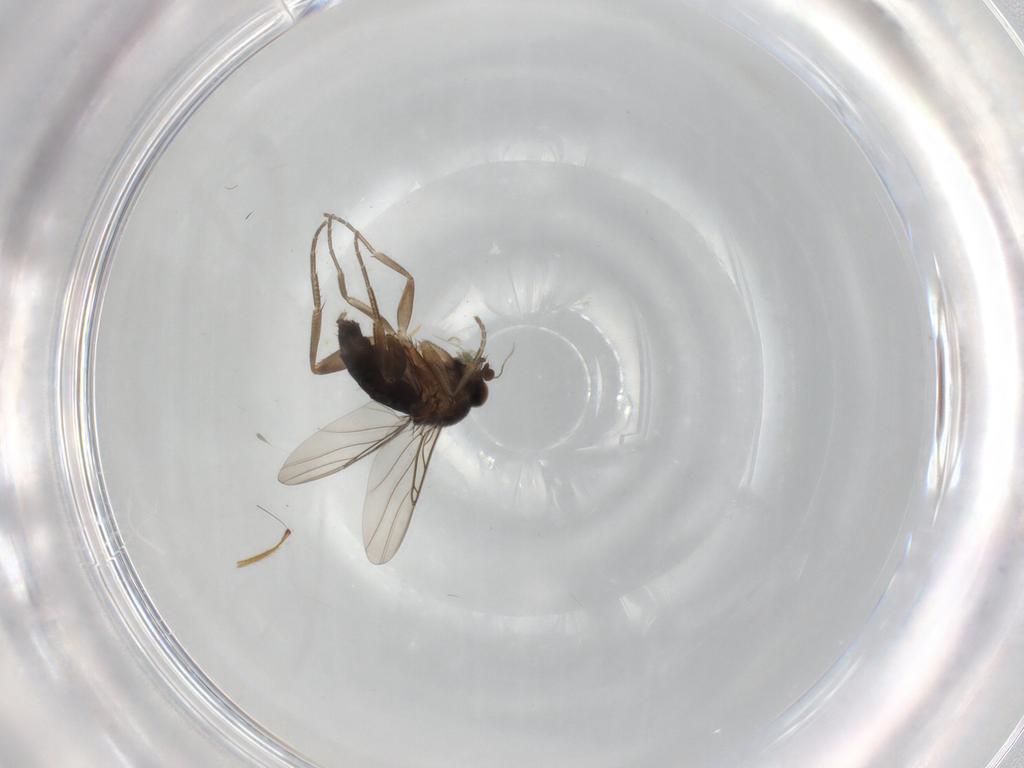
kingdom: Animalia
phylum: Arthropoda
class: Insecta
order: Diptera
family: Phoridae
